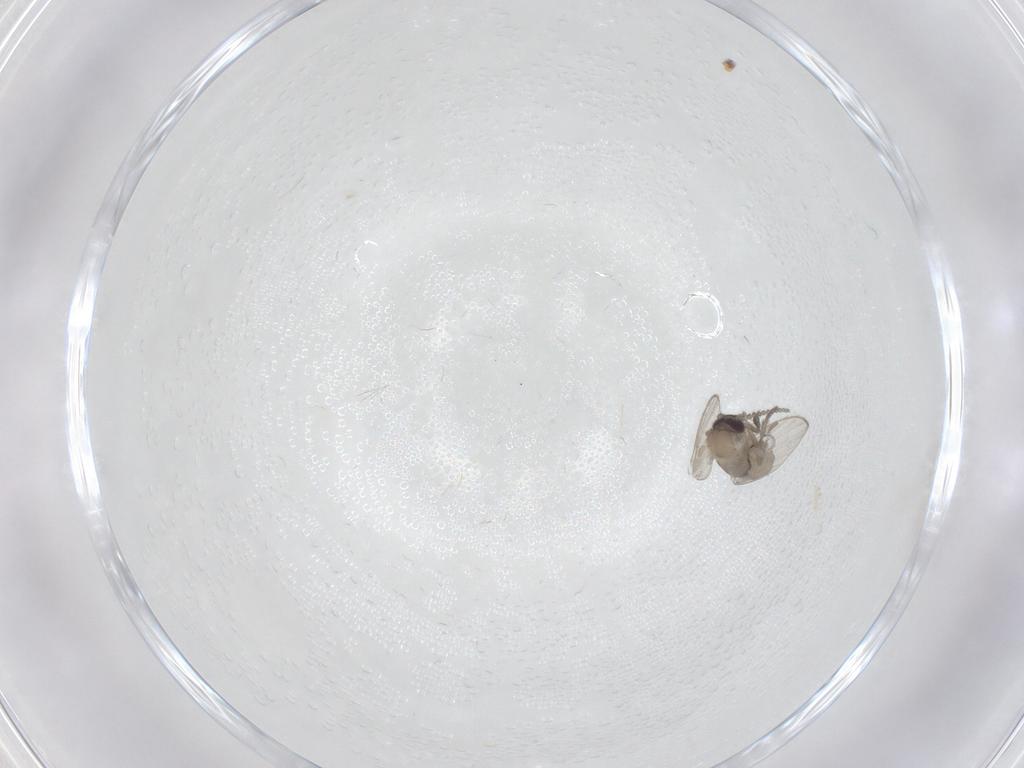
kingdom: Animalia
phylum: Arthropoda
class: Insecta
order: Diptera
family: Psychodidae
